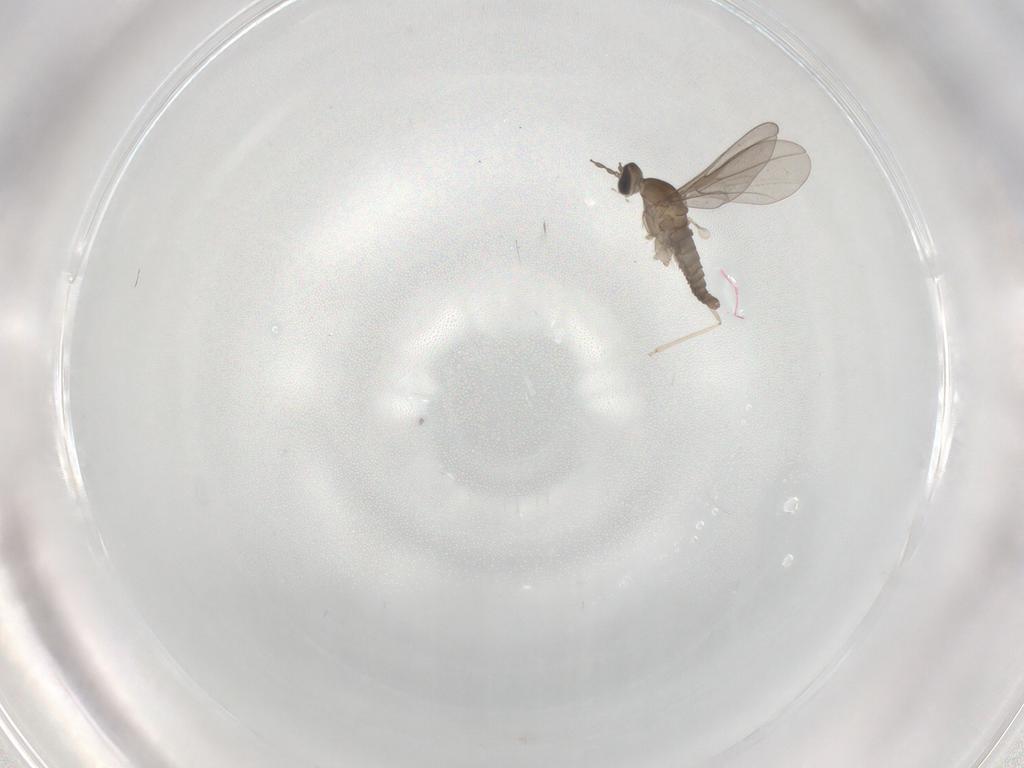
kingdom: Animalia
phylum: Arthropoda
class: Insecta
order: Diptera
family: Cecidomyiidae
